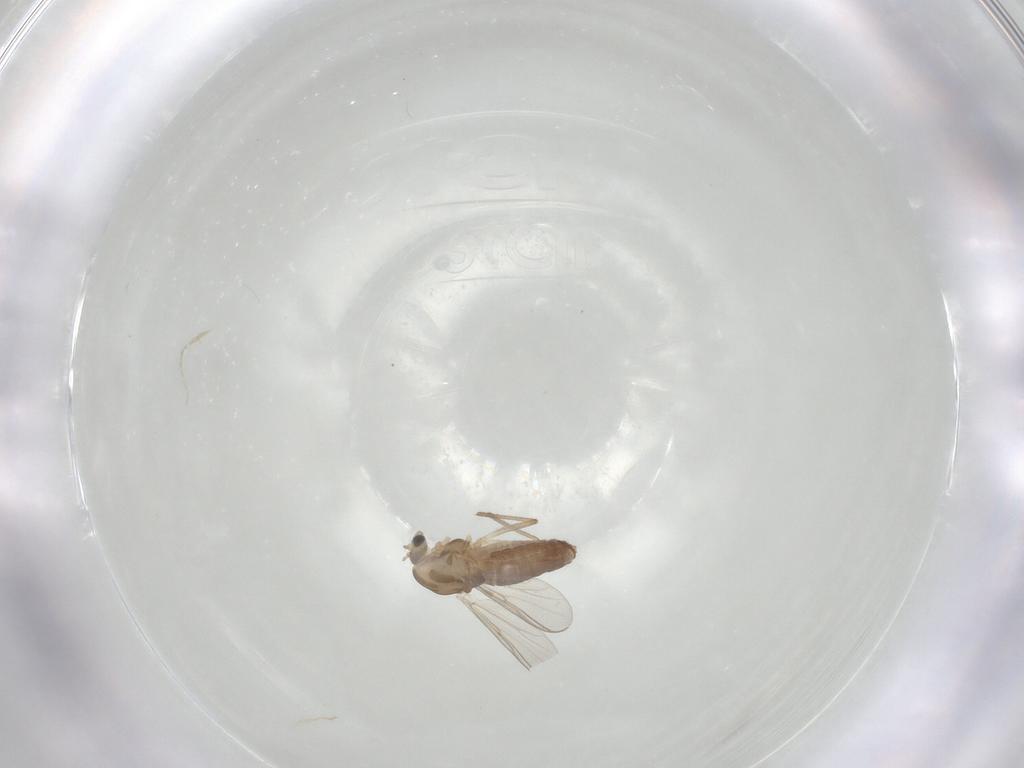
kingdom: Animalia
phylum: Arthropoda
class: Insecta
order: Diptera
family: Chironomidae
